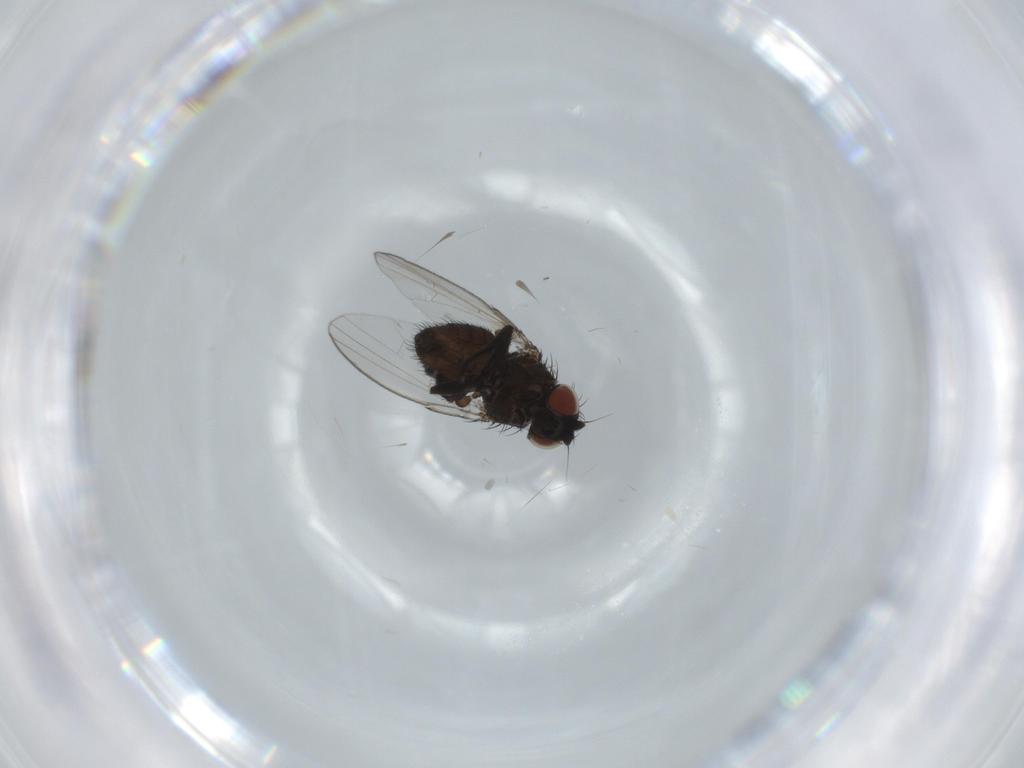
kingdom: Animalia
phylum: Arthropoda
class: Insecta
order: Diptera
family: Milichiidae
